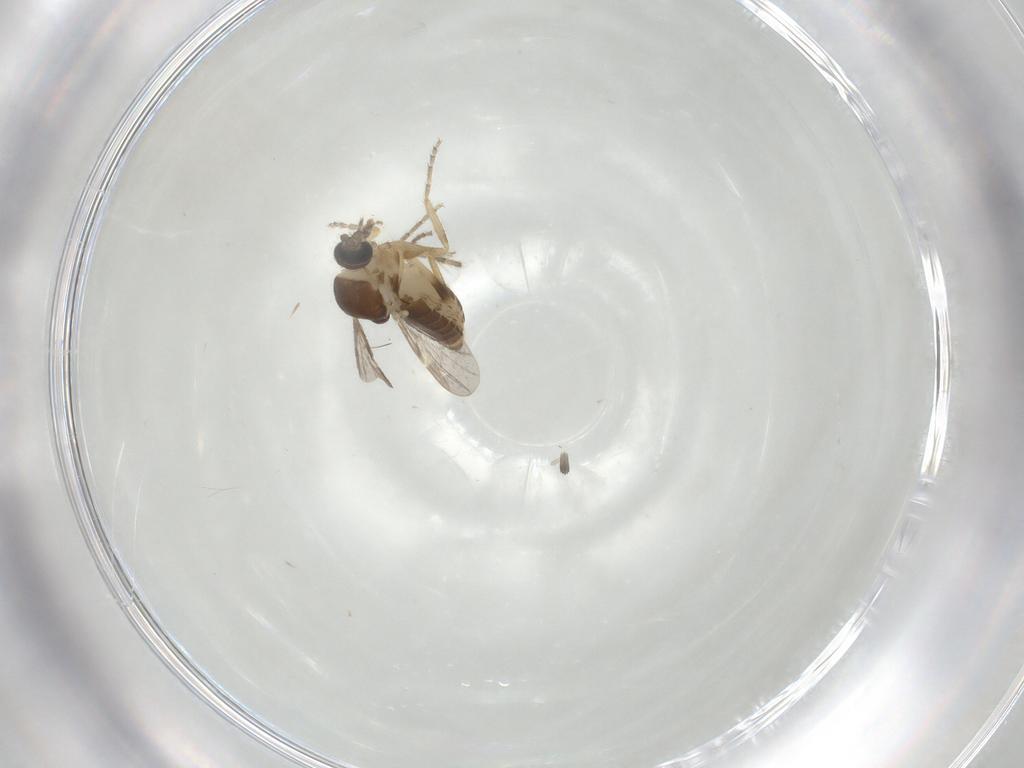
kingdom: Animalia
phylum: Arthropoda
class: Insecta
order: Diptera
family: Ceratopogonidae
